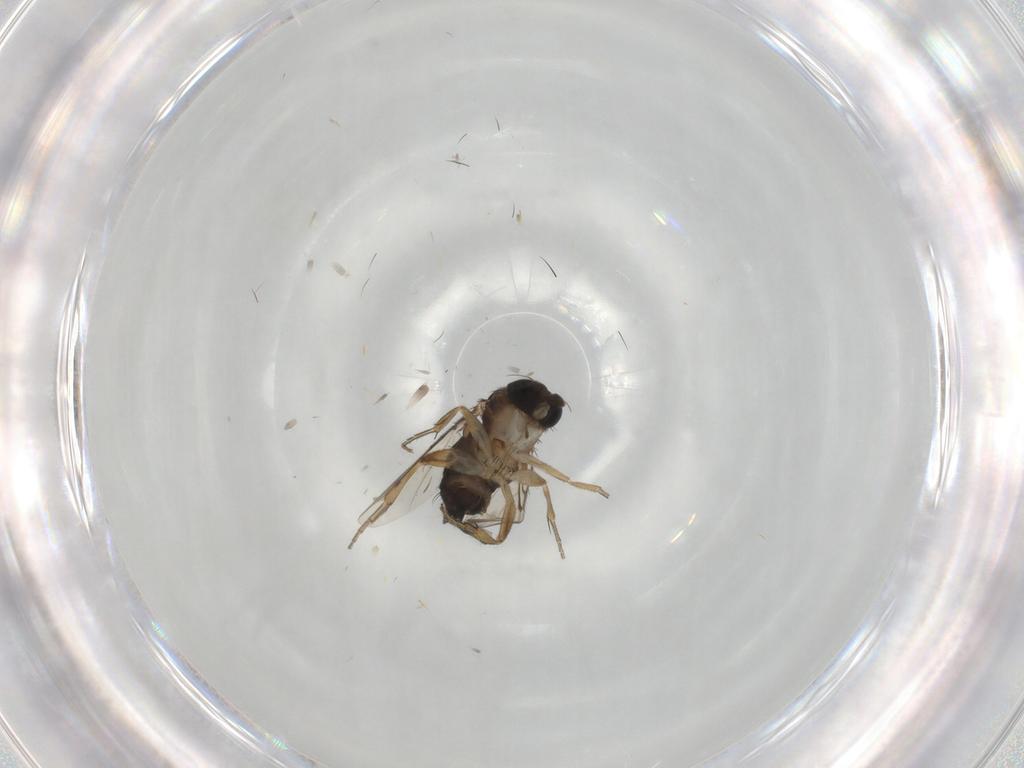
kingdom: Animalia
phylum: Arthropoda
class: Insecta
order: Diptera
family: Phoridae
